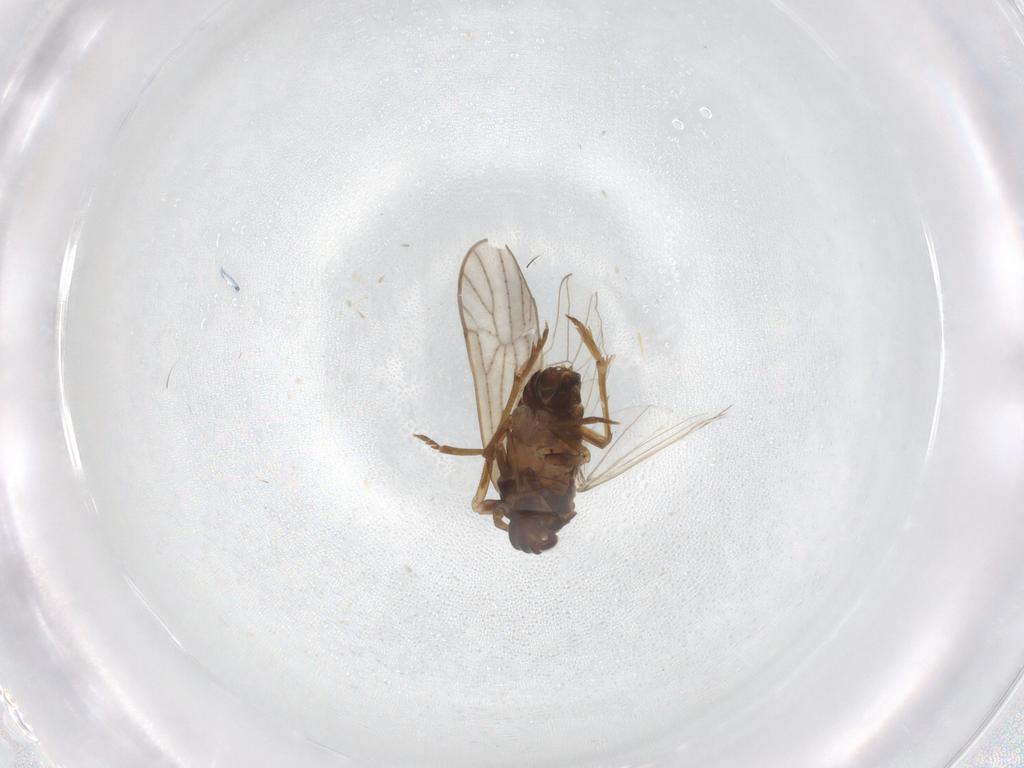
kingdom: Animalia
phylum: Arthropoda
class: Insecta
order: Hemiptera
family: Delphacidae
